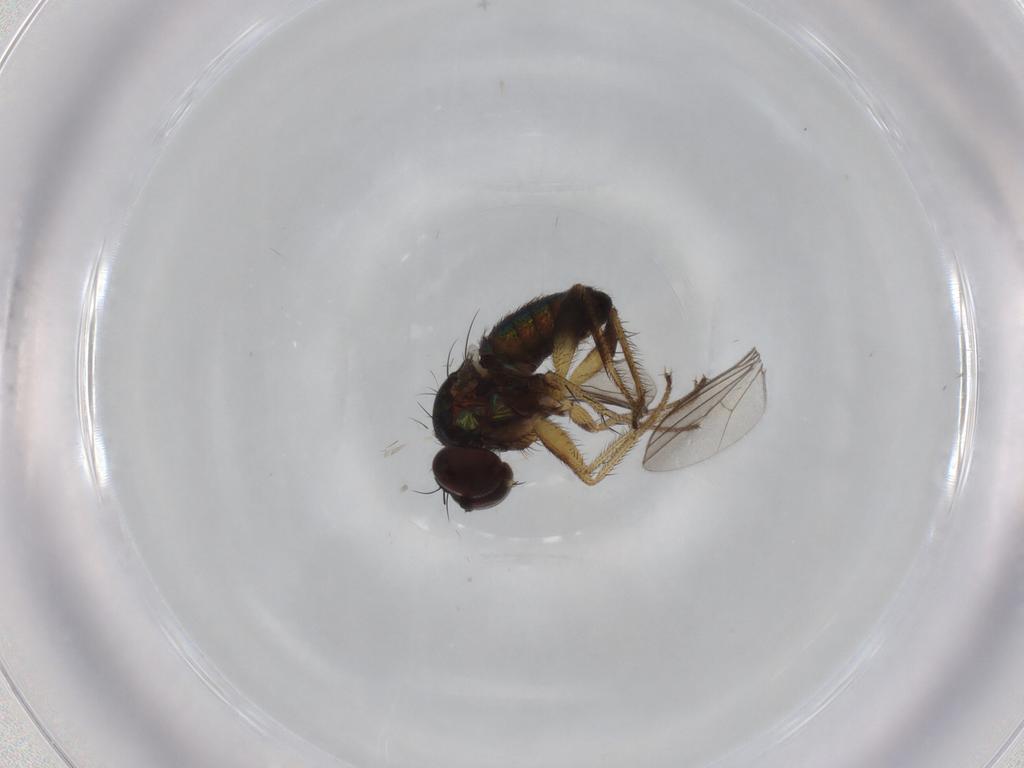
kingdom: Animalia
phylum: Arthropoda
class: Insecta
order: Diptera
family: Dolichopodidae
